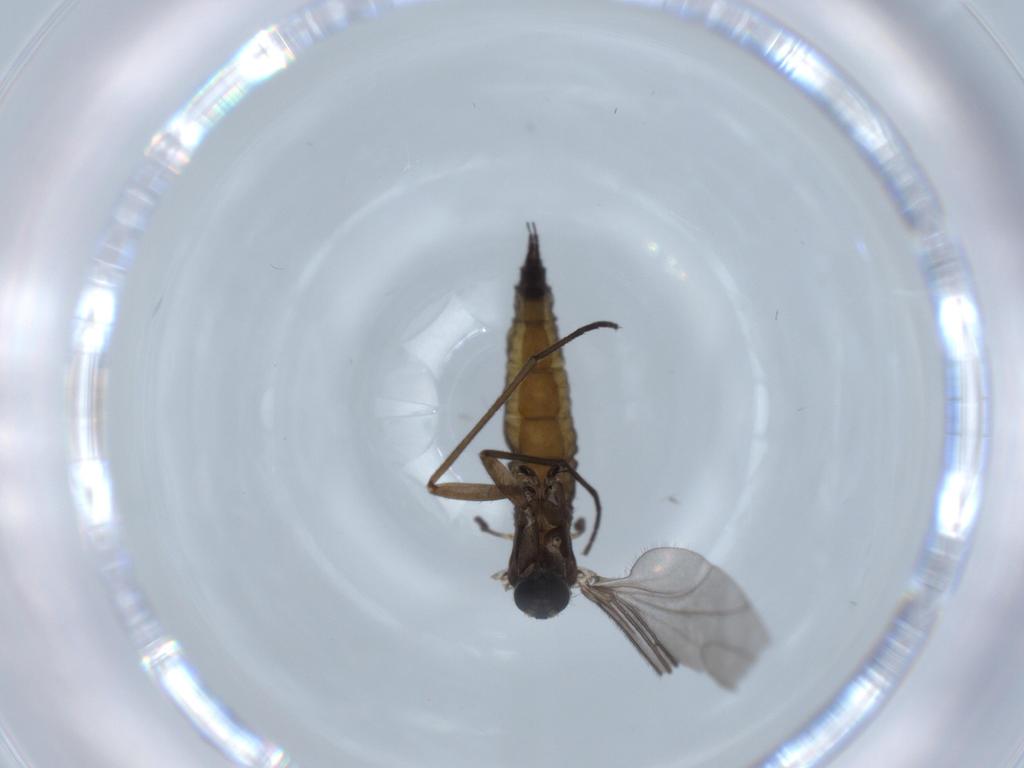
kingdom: Animalia
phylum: Arthropoda
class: Insecta
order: Diptera
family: Sciaridae
